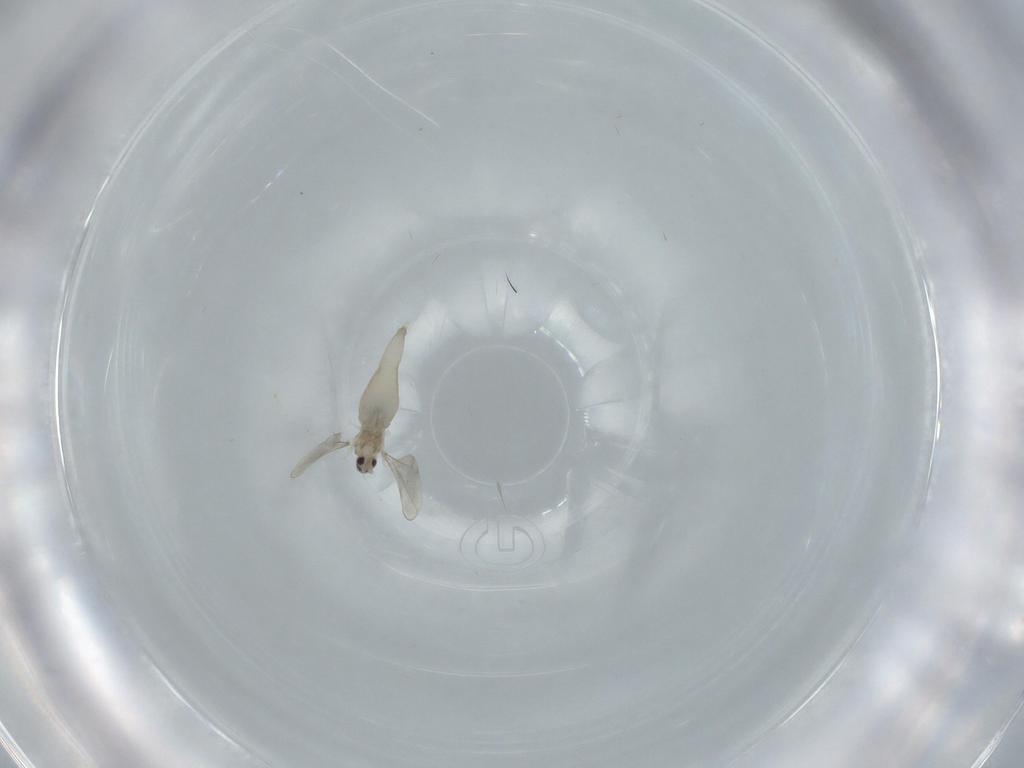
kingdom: Animalia
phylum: Arthropoda
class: Insecta
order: Diptera
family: Cecidomyiidae
